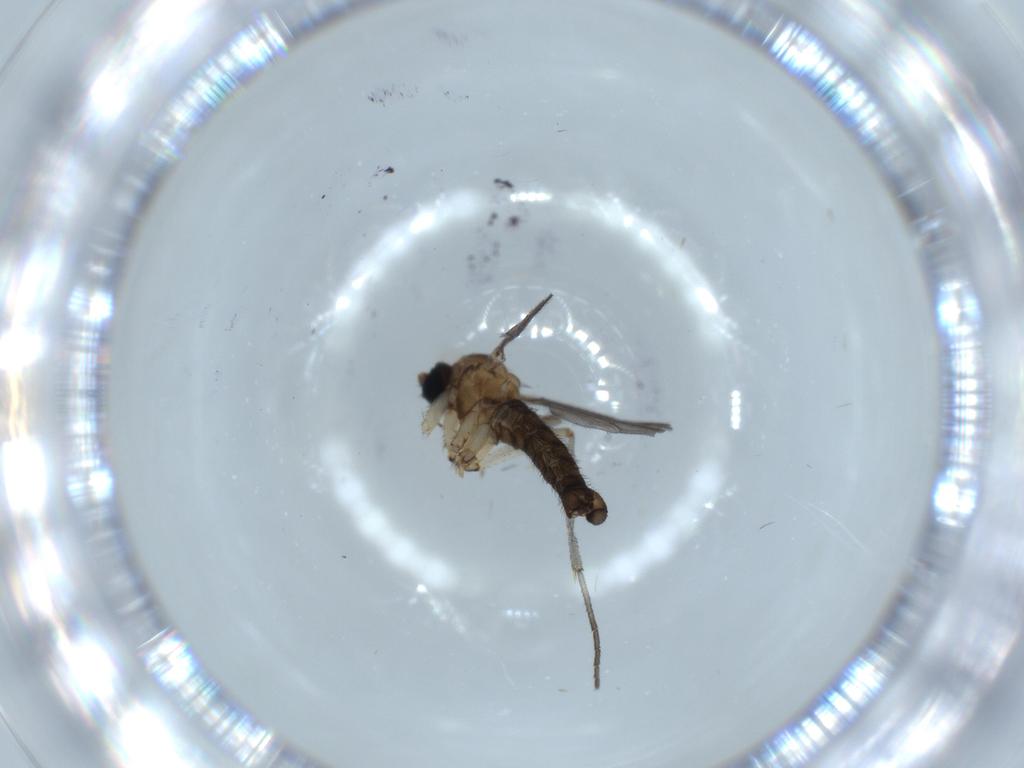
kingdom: Animalia
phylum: Arthropoda
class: Insecta
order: Diptera
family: Sciaridae
